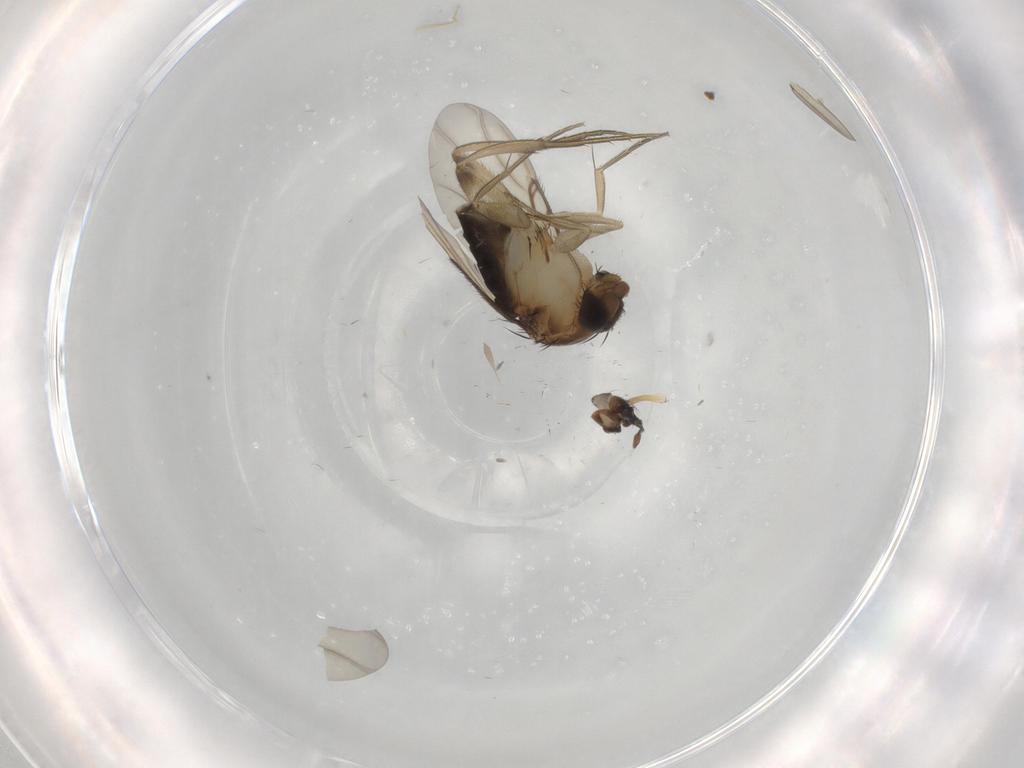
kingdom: Animalia
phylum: Arthropoda
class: Insecta
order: Diptera
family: Phoridae
